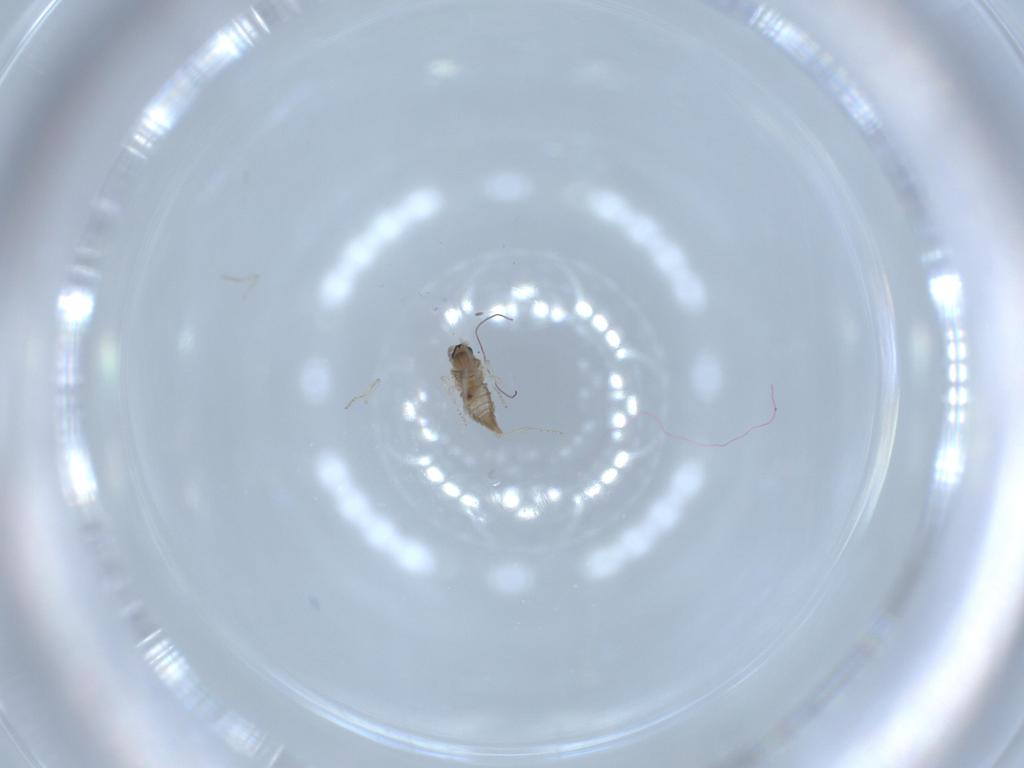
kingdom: Animalia
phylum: Arthropoda
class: Insecta
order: Diptera
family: Cecidomyiidae
